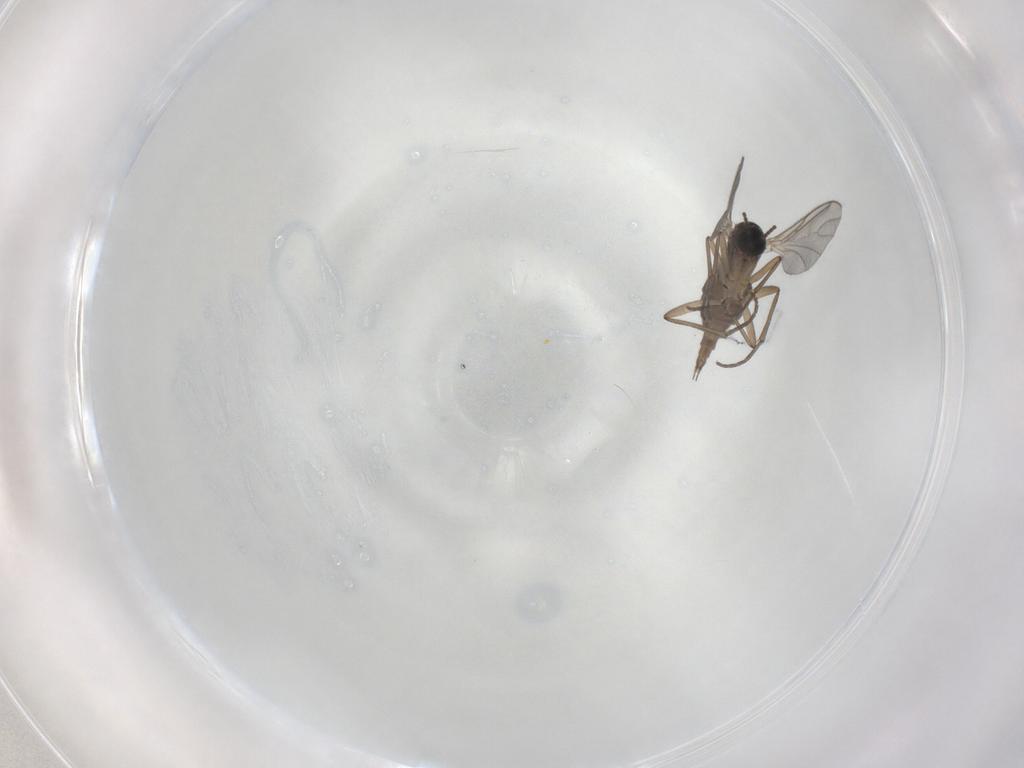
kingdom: Animalia
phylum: Arthropoda
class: Insecta
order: Diptera
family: Sciaridae
